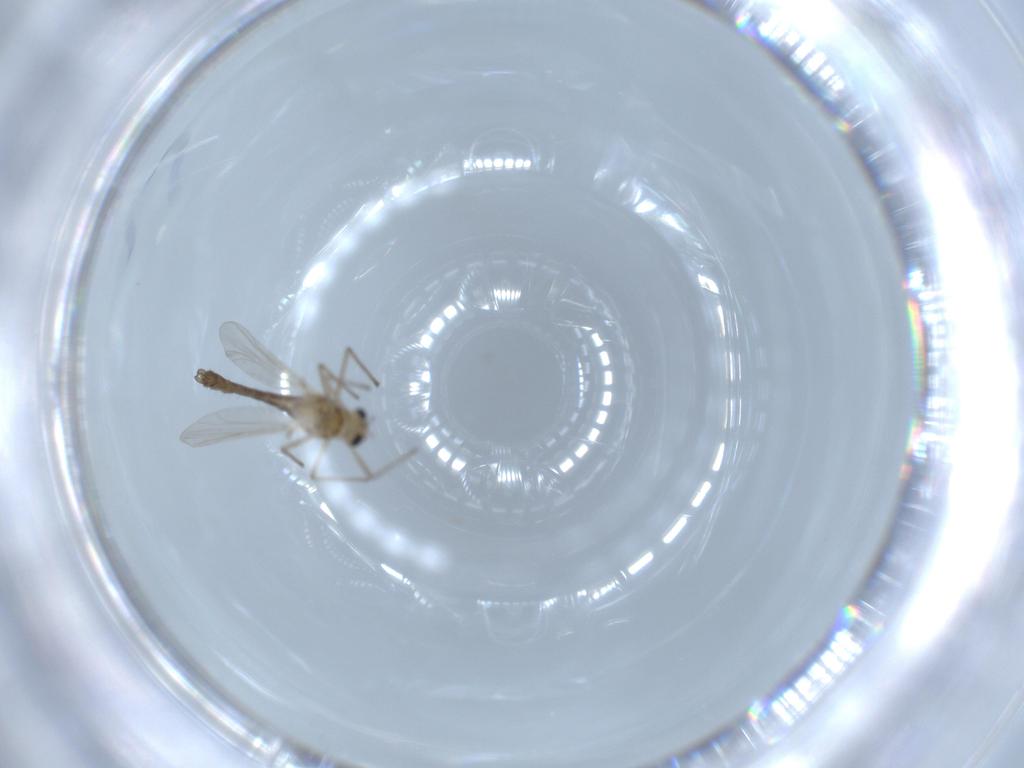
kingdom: Animalia
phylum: Arthropoda
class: Insecta
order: Diptera
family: Chironomidae
